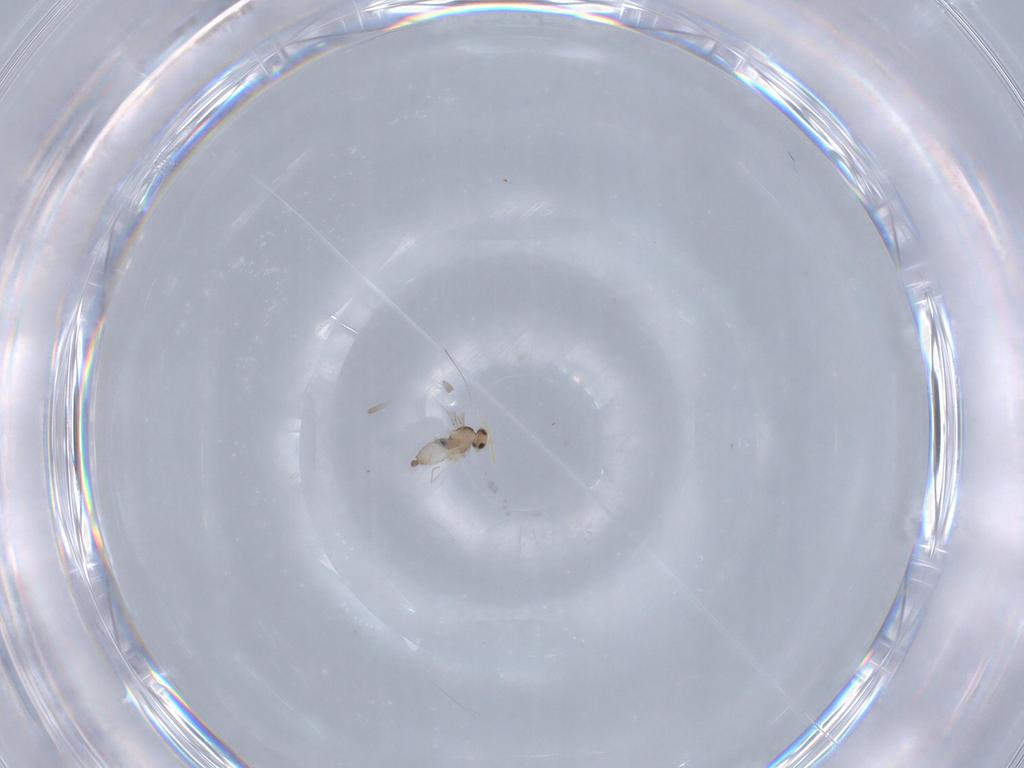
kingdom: Animalia
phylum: Arthropoda
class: Insecta
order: Diptera
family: Cecidomyiidae
